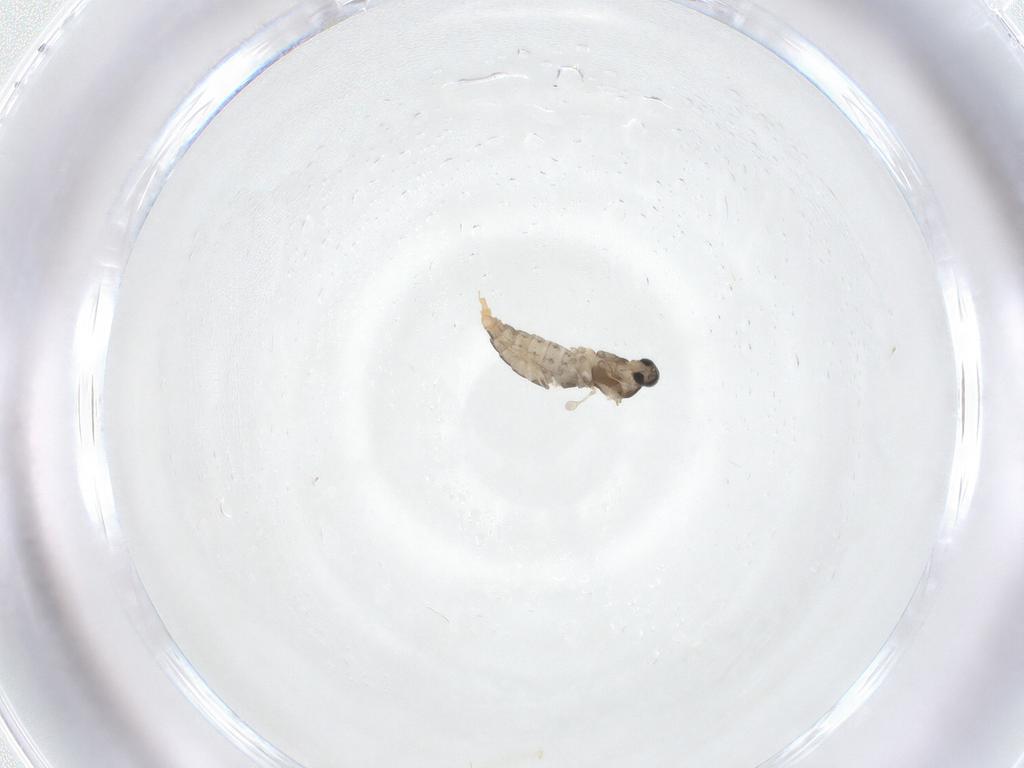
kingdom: Animalia
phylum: Arthropoda
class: Insecta
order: Diptera
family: Cecidomyiidae
